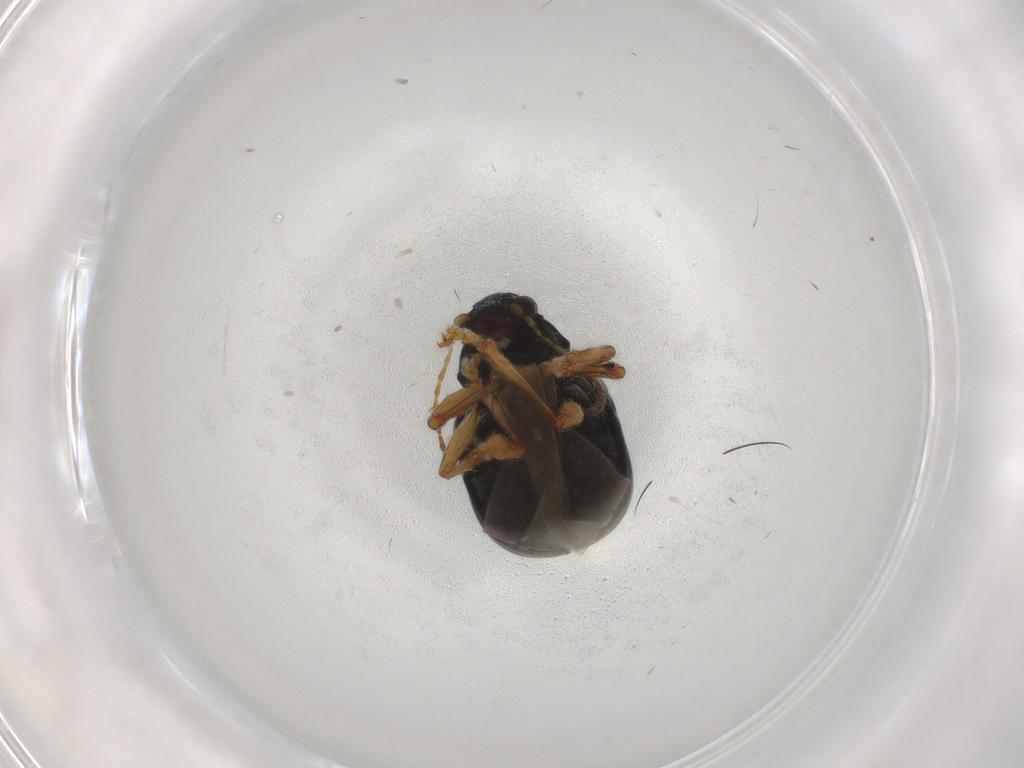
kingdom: Animalia
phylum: Arthropoda
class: Insecta
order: Coleoptera
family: Chrysomelidae
